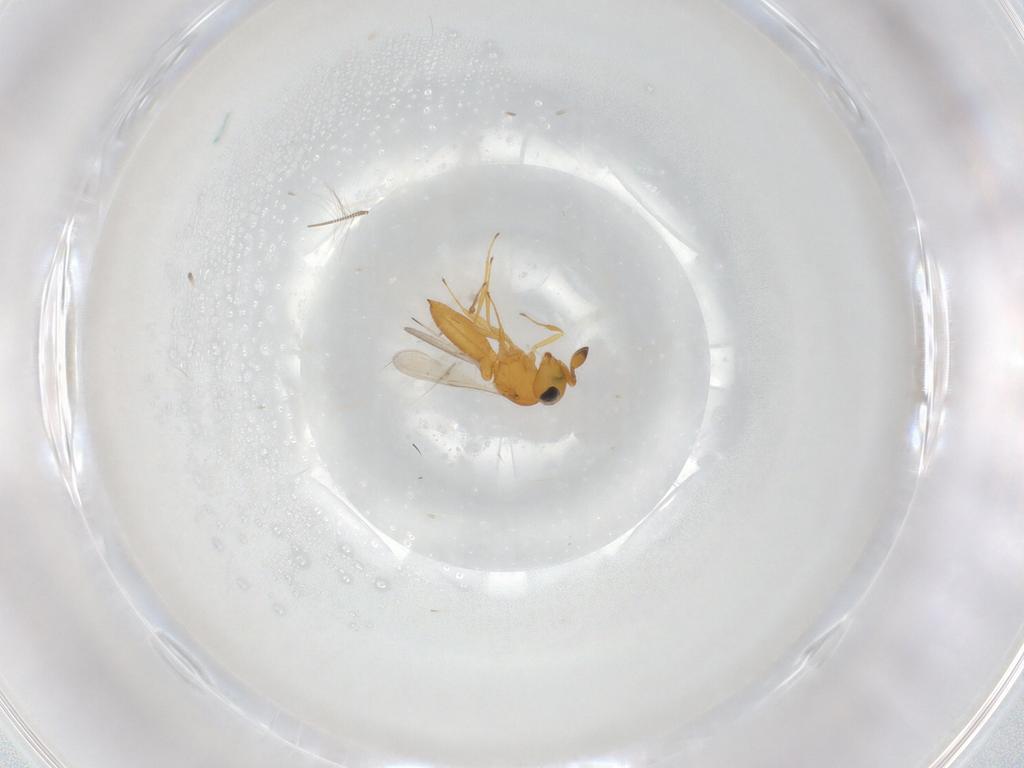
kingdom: Animalia
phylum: Arthropoda
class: Insecta
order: Hymenoptera
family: Scelionidae
